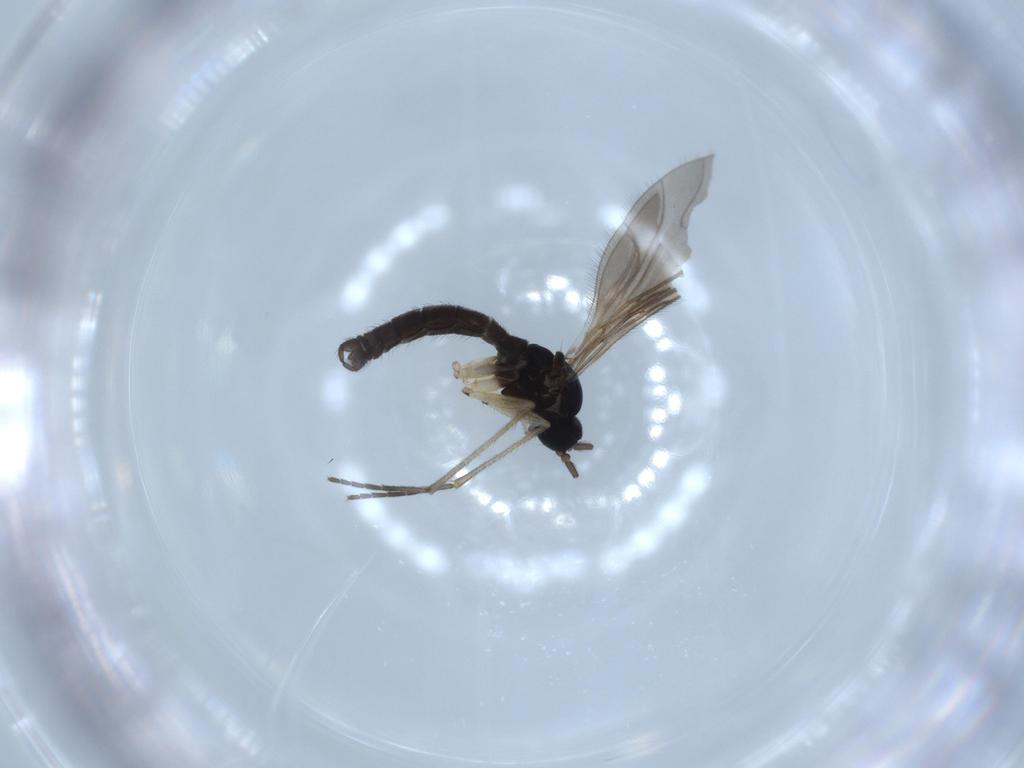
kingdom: Animalia
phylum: Arthropoda
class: Insecta
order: Diptera
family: Sciaridae
